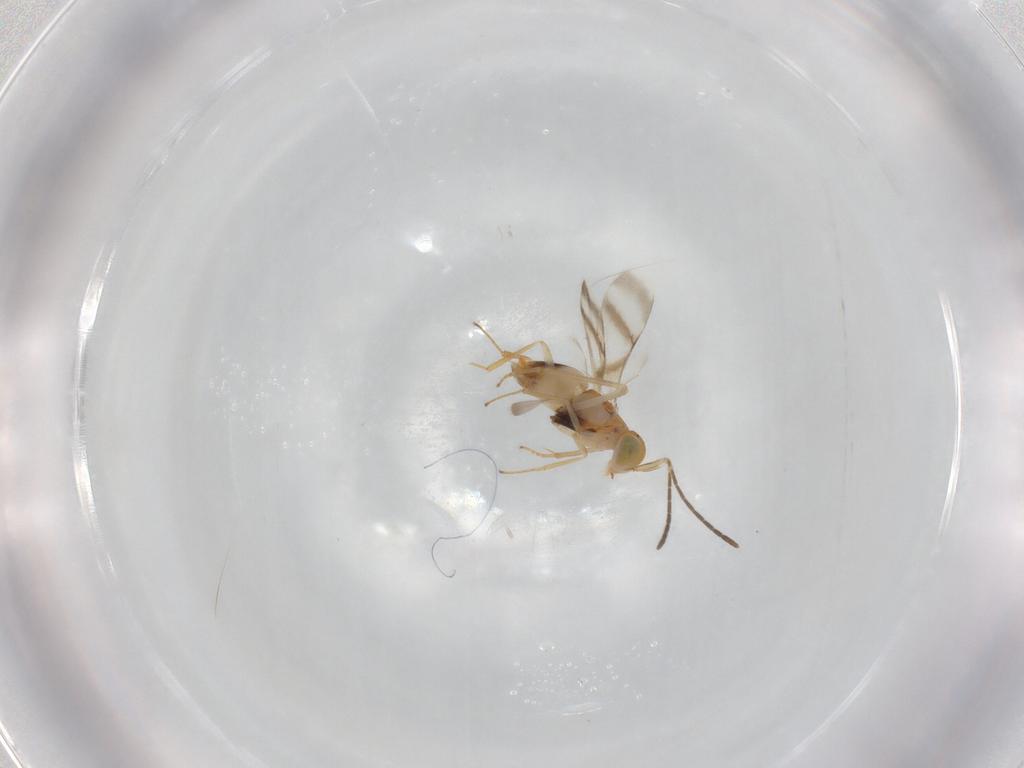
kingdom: Animalia
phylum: Arthropoda
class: Insecta
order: Hymenoptera
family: Encyrtidae
